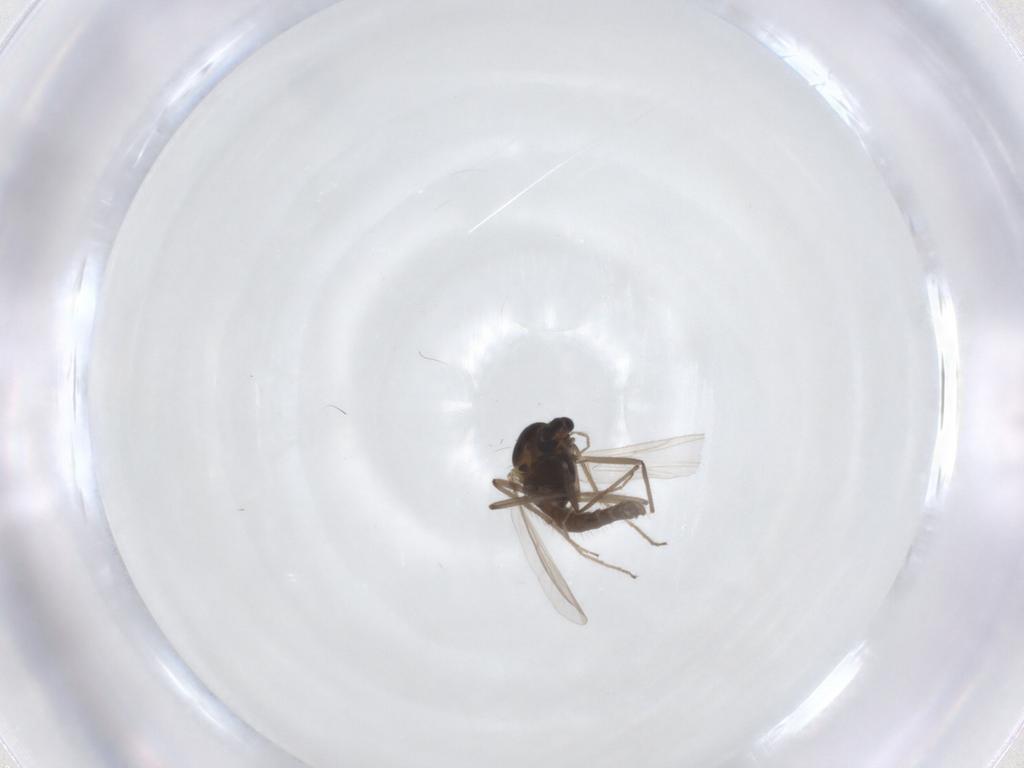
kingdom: Animalia
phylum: Arthropoda
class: Insecta
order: Diptera
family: Chironomidae
